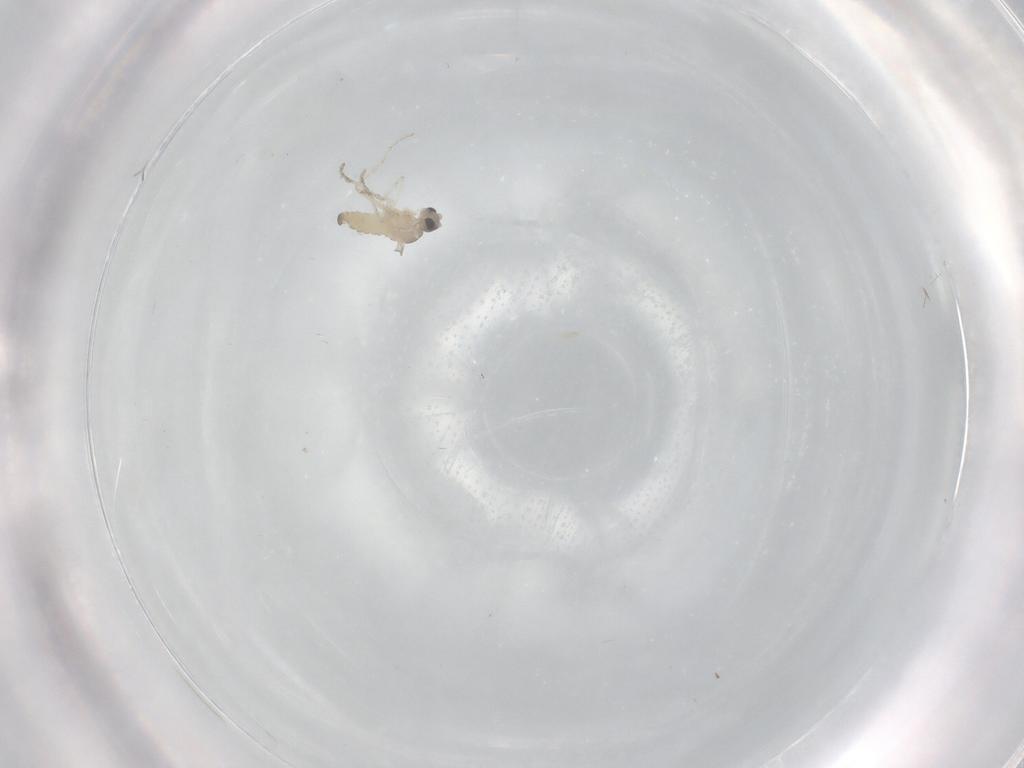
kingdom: Animalia
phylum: Arthropoda
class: Insecta
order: Diptera
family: Cecidomyiidae
